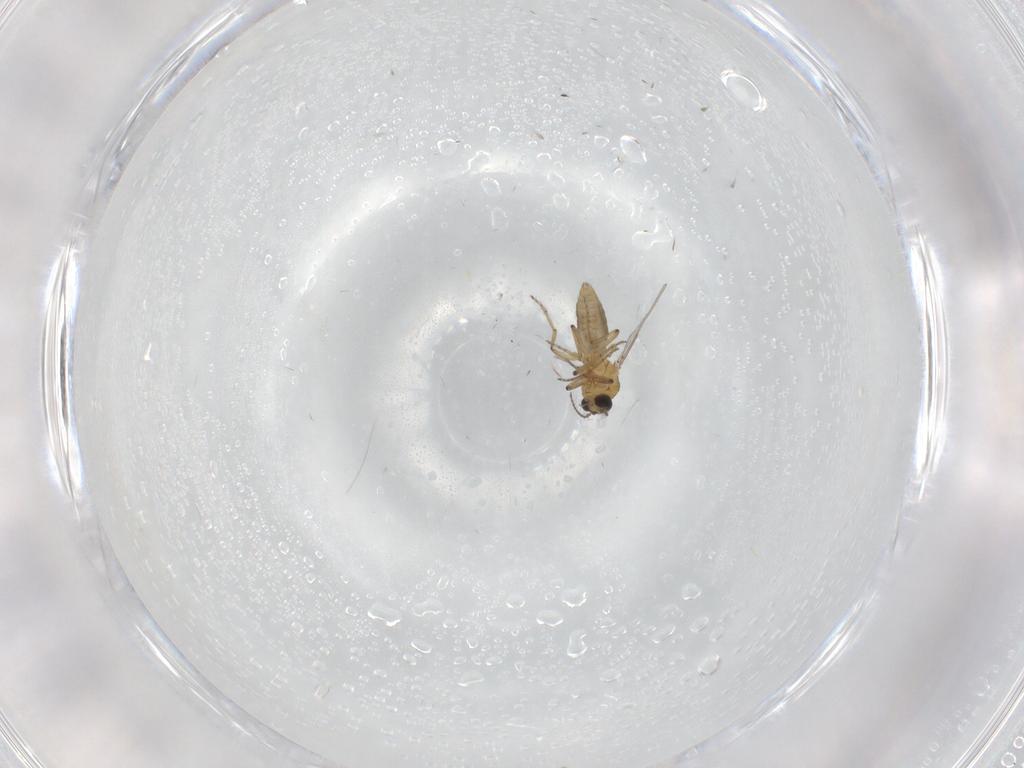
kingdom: Animalia
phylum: Arthropoda
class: Insecta
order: Diptera
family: Ceratopogonidae
